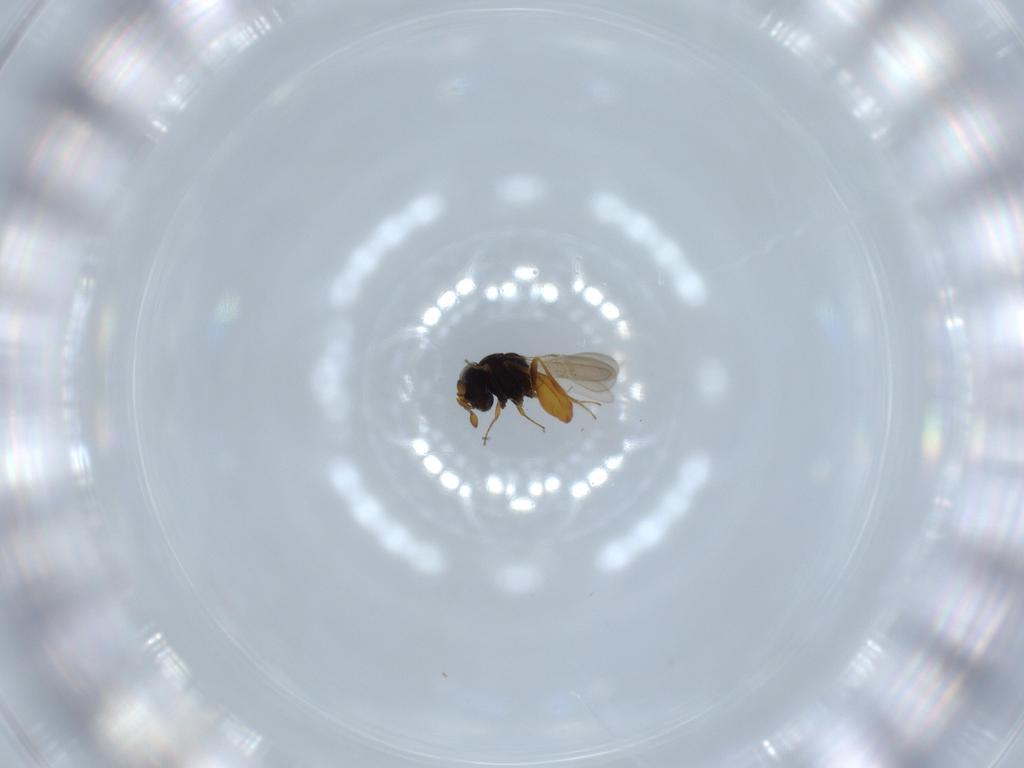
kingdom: Animalia
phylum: Arthropoda
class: Insecta
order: Hymenoptera
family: Scelionidae
